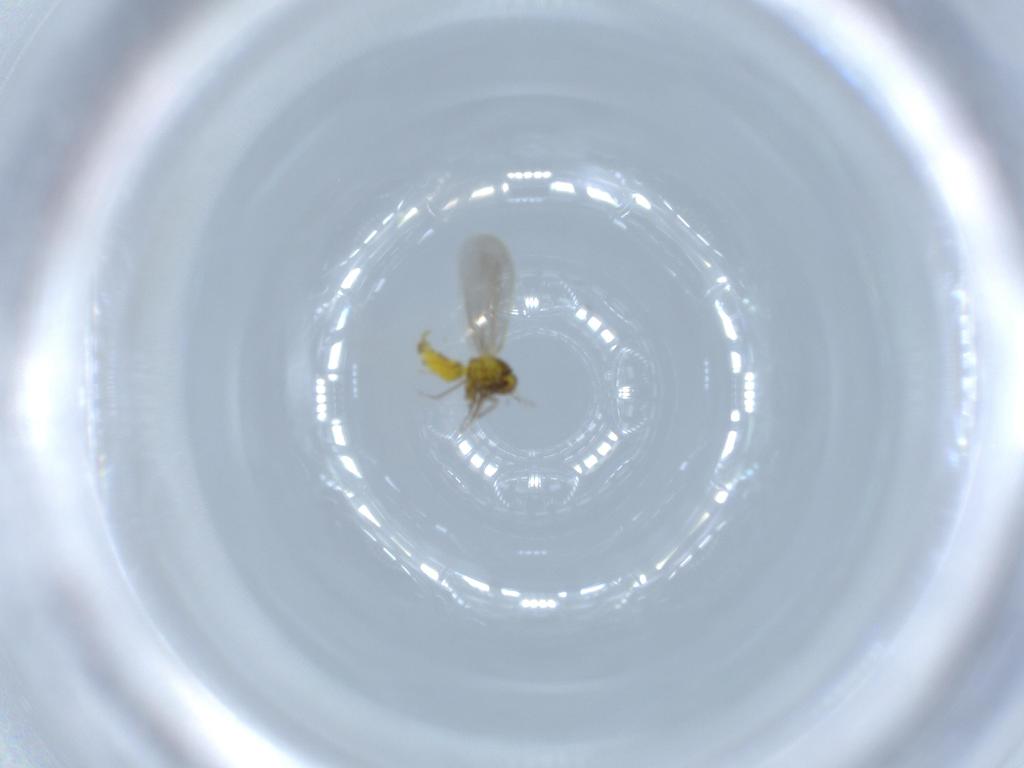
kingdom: Animalia
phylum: Arthropoda
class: Insecta
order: Hemiptera
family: Aleyrodidae
